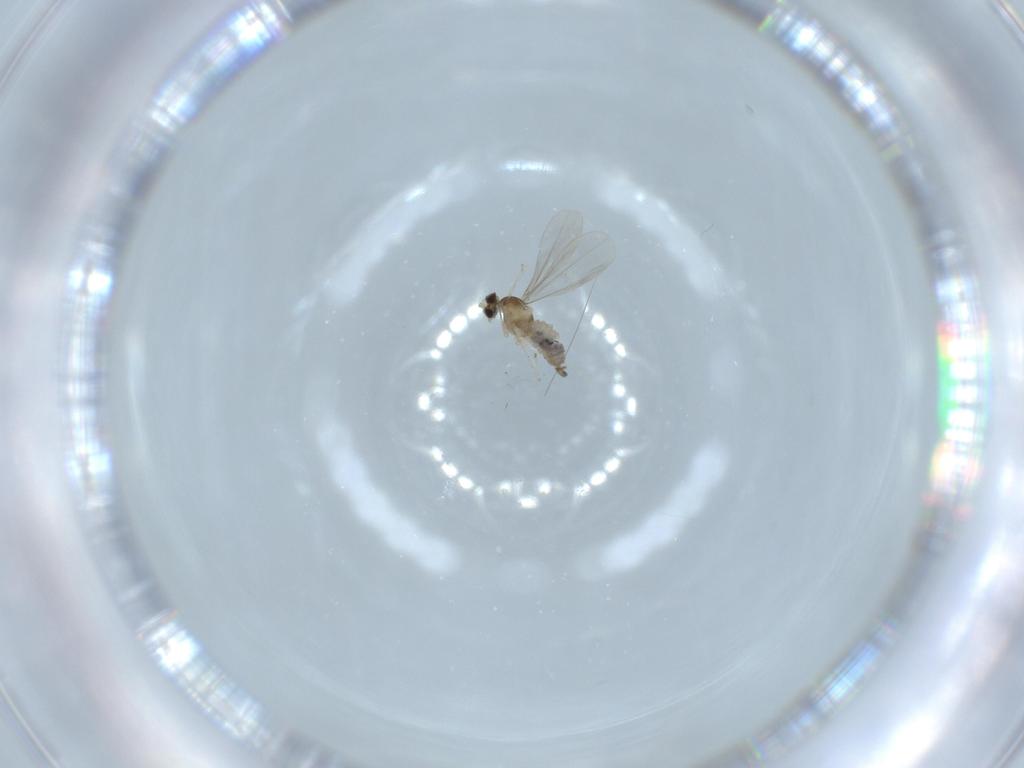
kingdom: Animalia
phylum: Arthropoda
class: Insecta
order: Diptera
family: Cecidomyiidae
